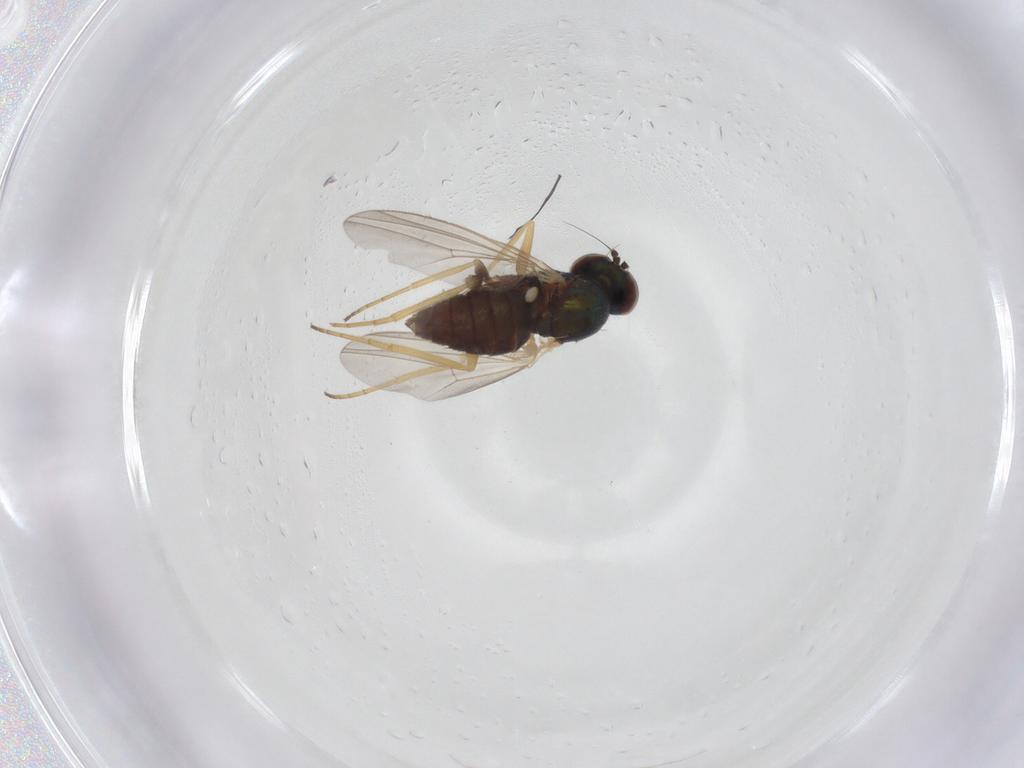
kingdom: Animalia
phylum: Arthropoda
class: Insecta
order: Diptera
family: Dolichopodidae
